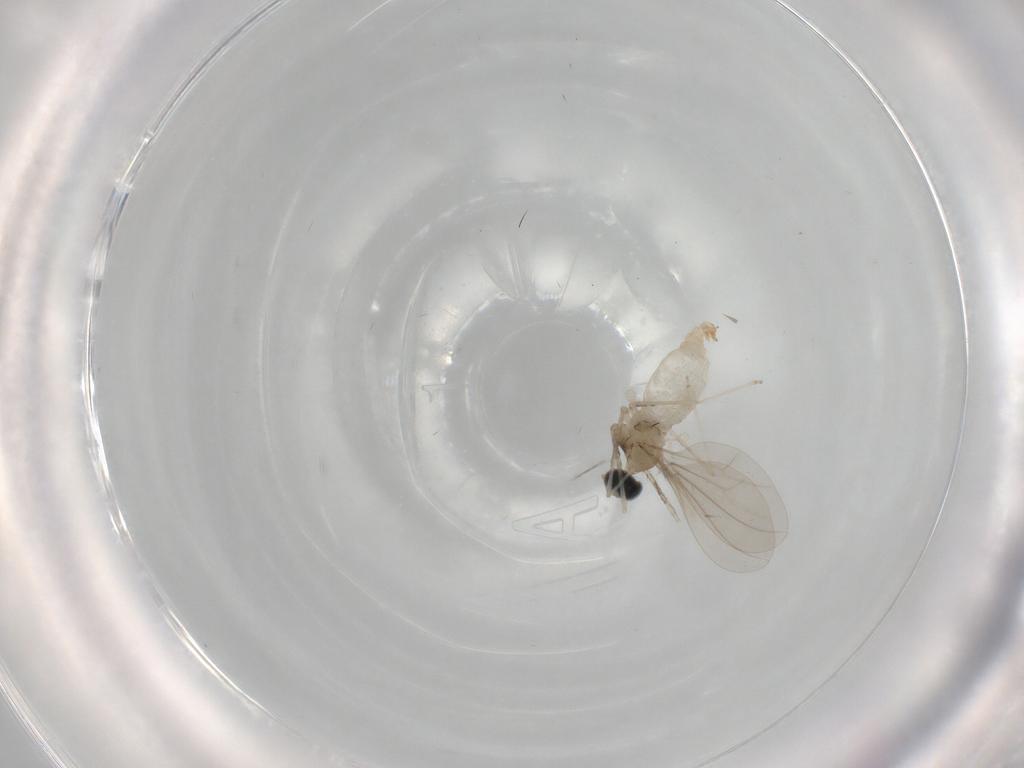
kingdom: Animalia
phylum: Arthropoda
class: Insecta
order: Diptera
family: Cecidomyiidae
